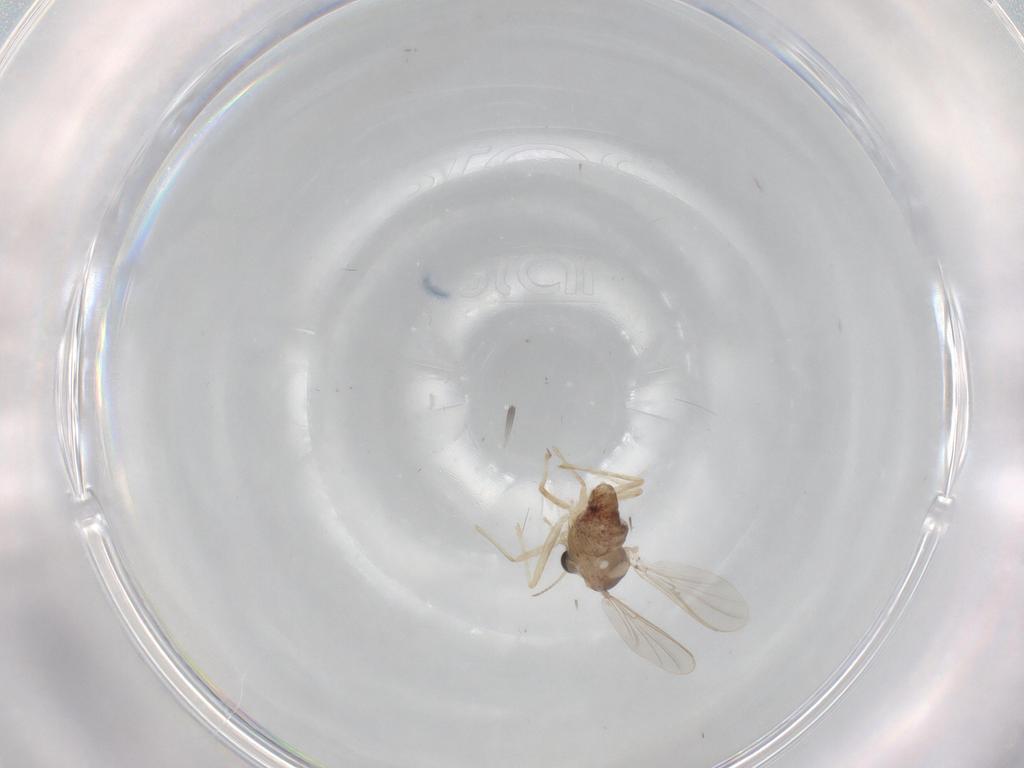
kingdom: Animalia
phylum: Arthropoda
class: Insecta
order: Diptera
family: Chironomidae
